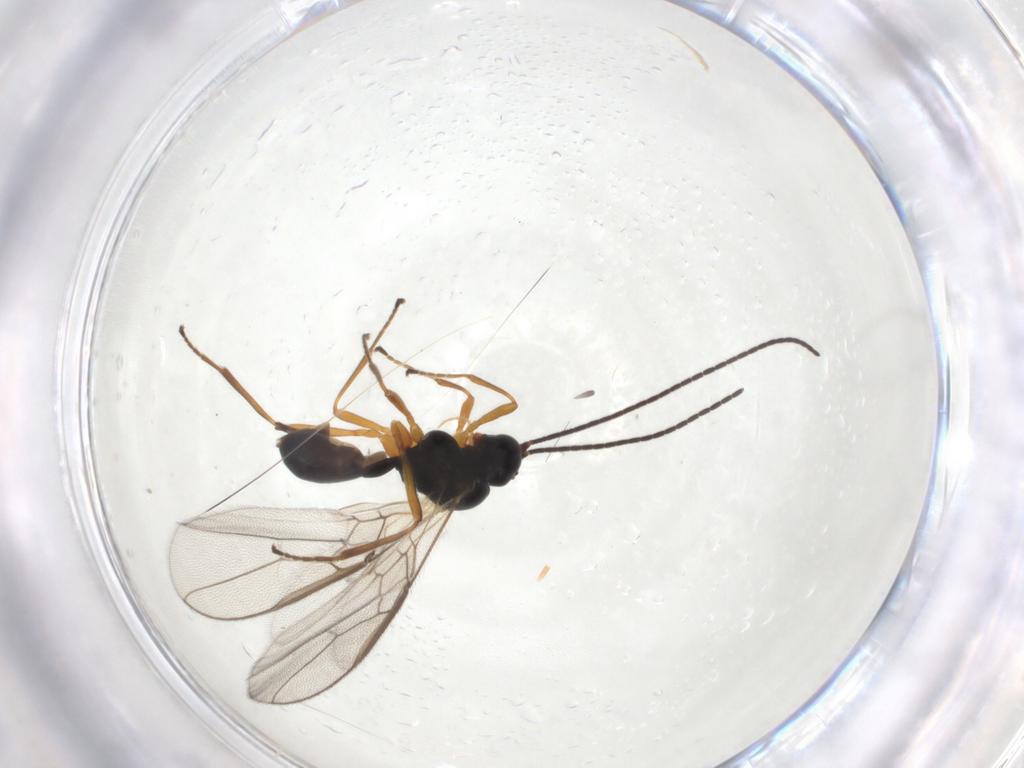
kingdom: Animalia
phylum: Arthropoda
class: Insecta
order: Hymenoptera
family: Braconidae
